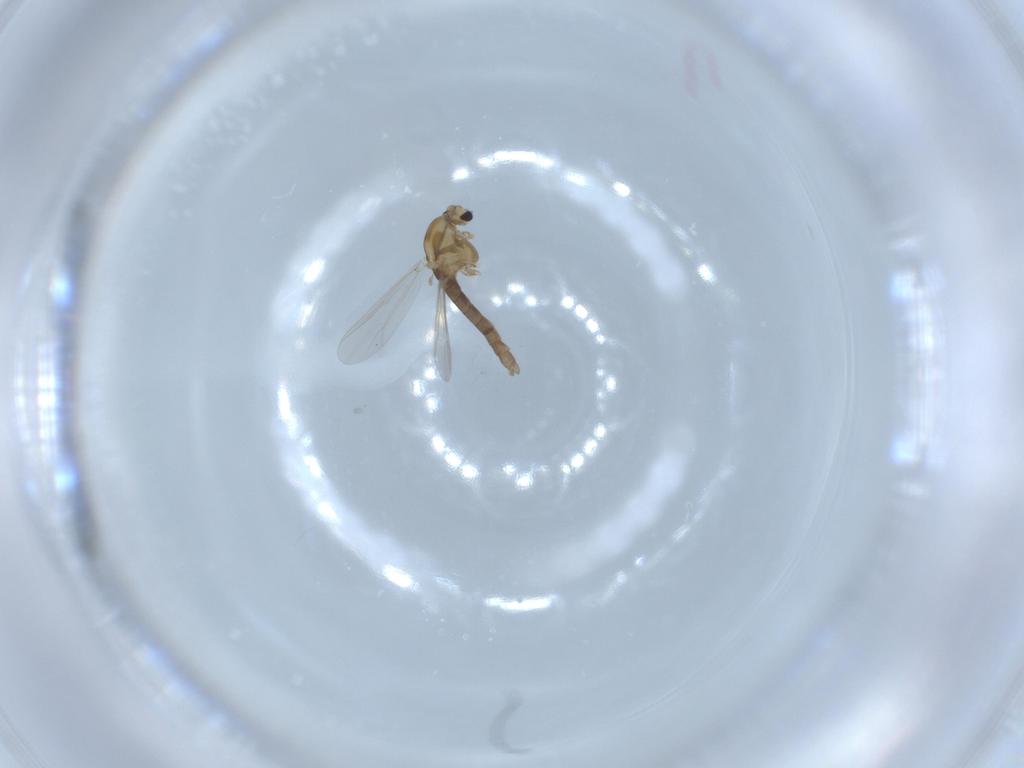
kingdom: Animalia
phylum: Arthropoda
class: Insecta
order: Diptera
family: Chironomidae
